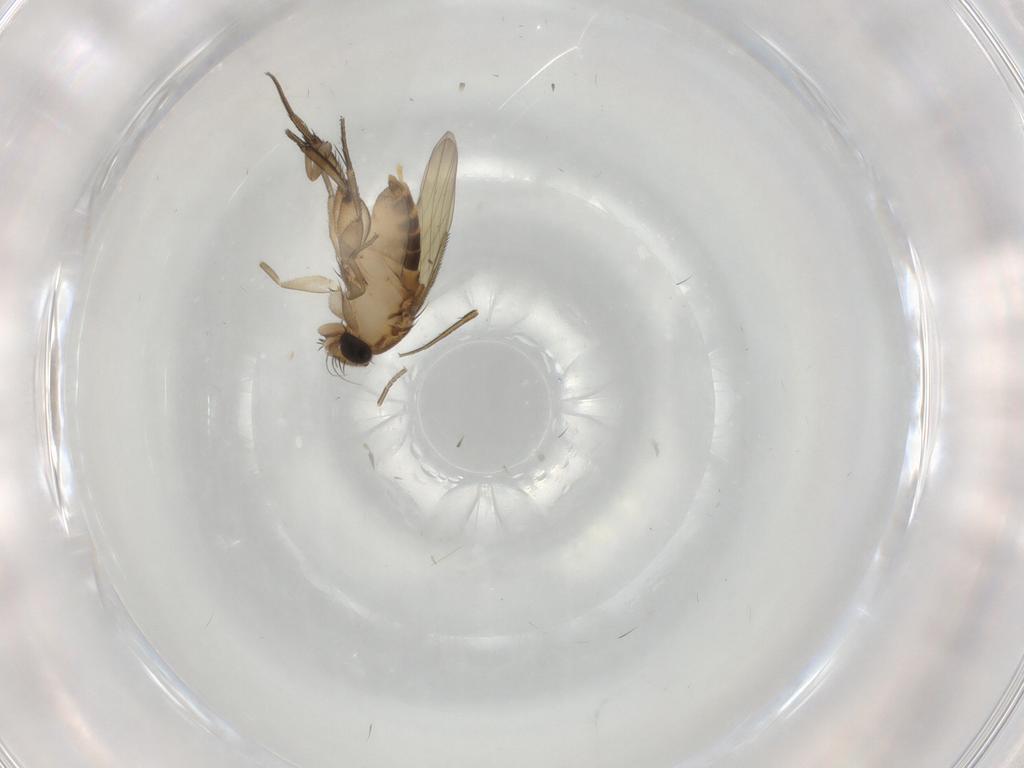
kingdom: Animalia
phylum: Arthropoda
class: Insecta
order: Diptera
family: Phoridae
